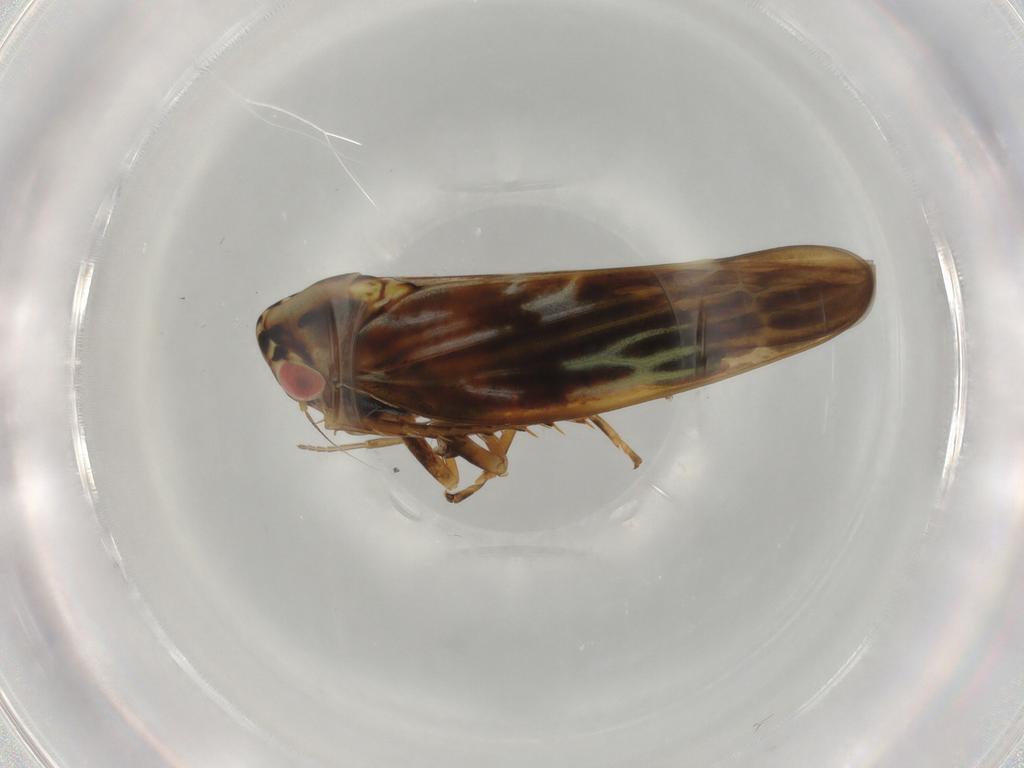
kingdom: Animalia
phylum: Arthropoda
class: Insecta
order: Hemiptera
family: Cicadellidae
